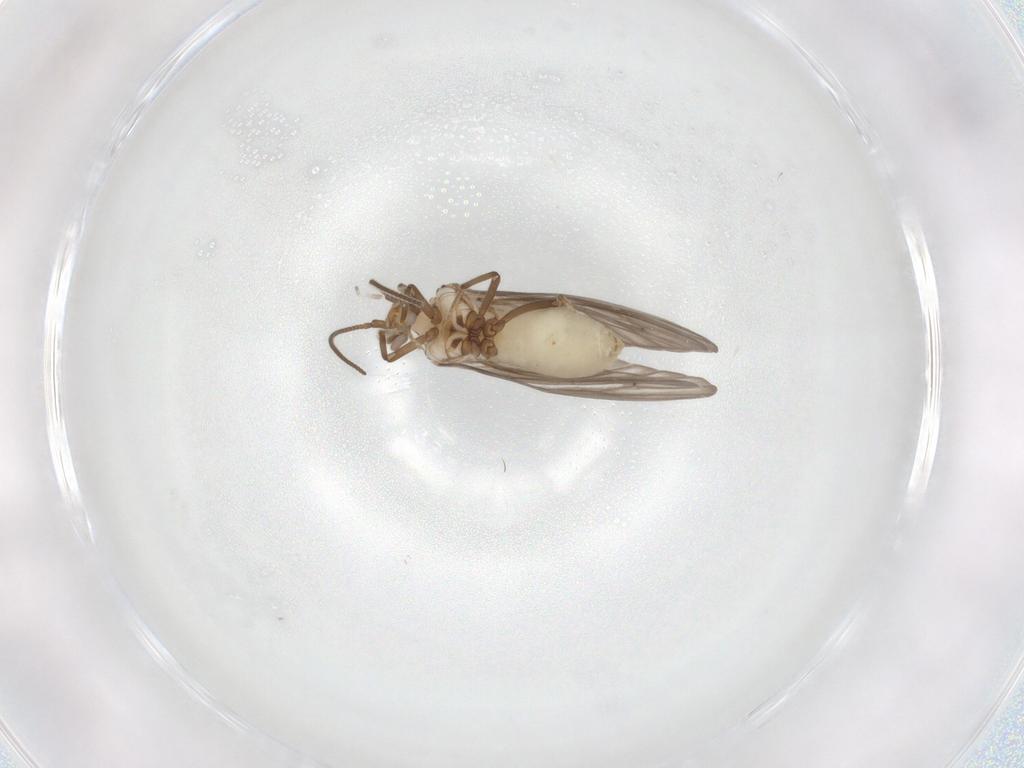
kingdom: Animalia
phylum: Arthropoda
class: Insecta
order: Neuroptera
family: Coniopterygidae
